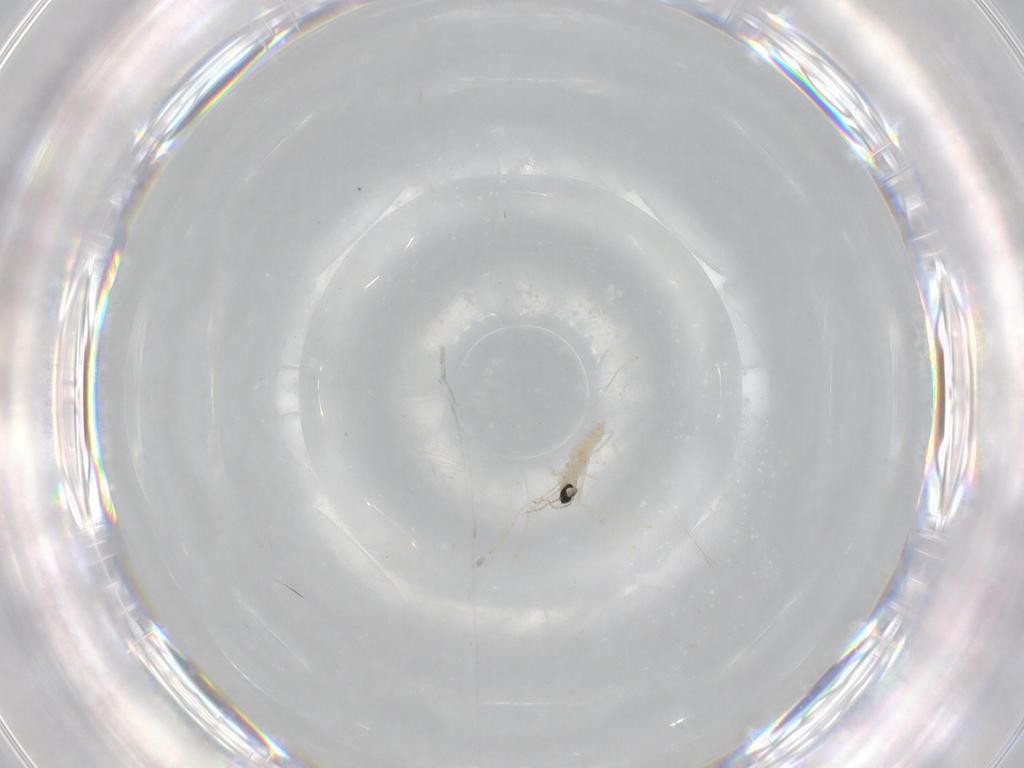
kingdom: Animalia
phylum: Arthropoda
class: Insecta
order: Diptera
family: Cecidomyiidae
